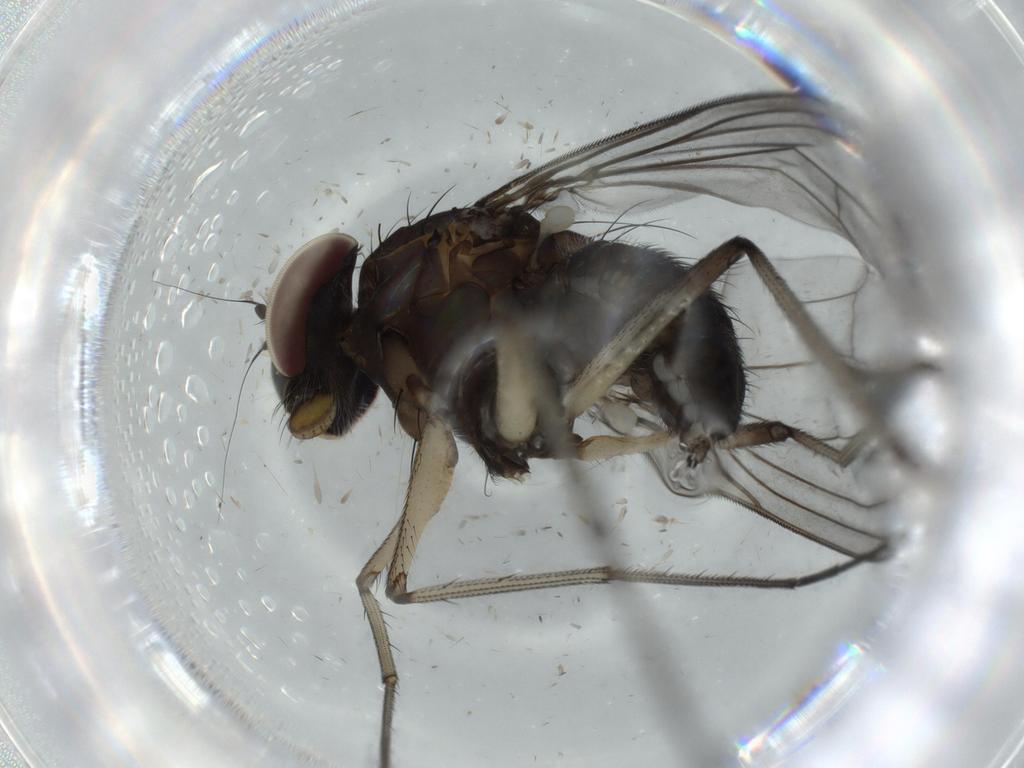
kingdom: Animalia
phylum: Arthropoda
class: Insecta
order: Diptera
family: Dolichopodidae
